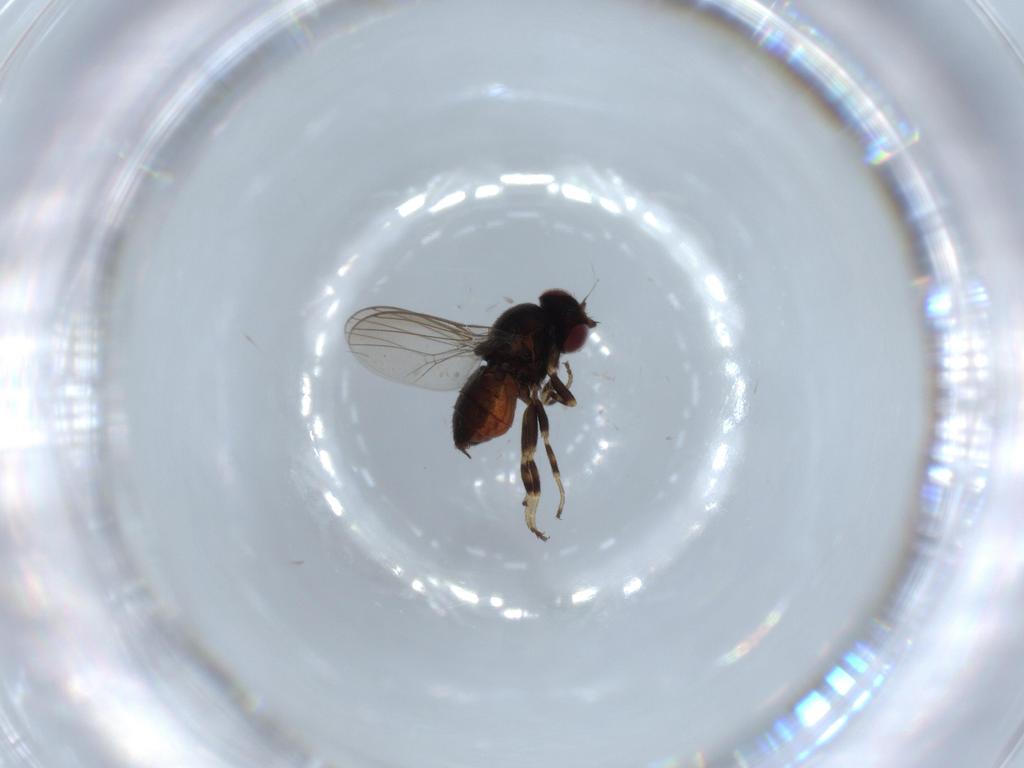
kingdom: Animalia
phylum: Arthropoda
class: Insecta
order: Diptera
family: Chloropidae
